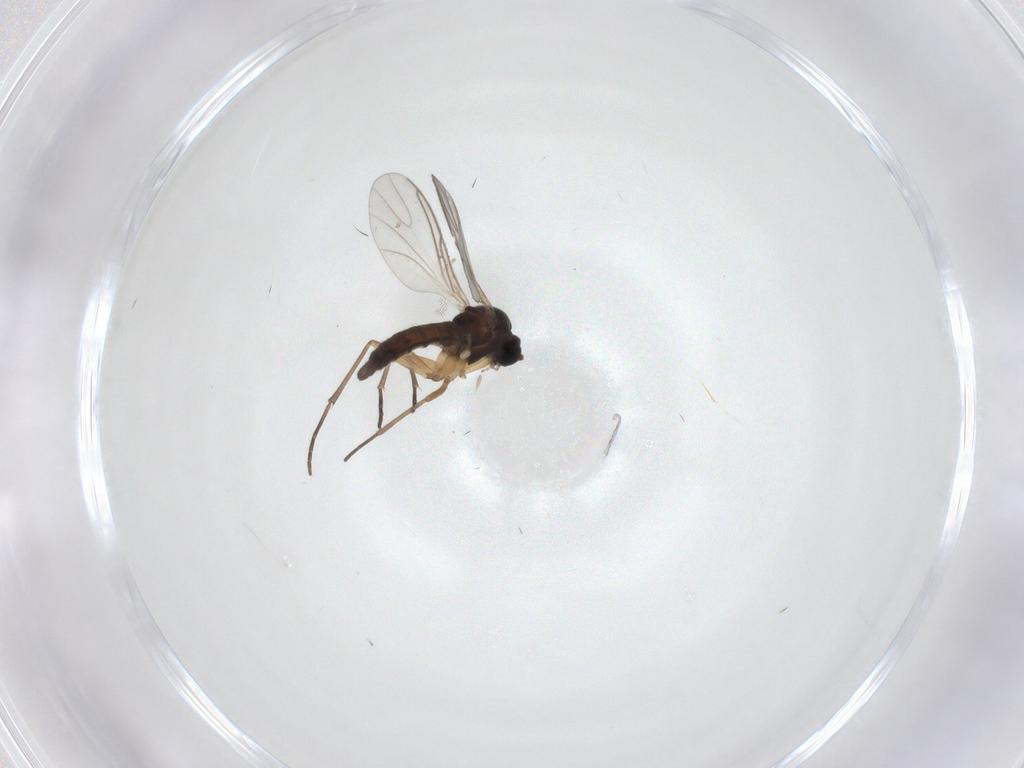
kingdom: Animalia
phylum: Arthropoda
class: Insecta
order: Diptera
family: Sciaridae
